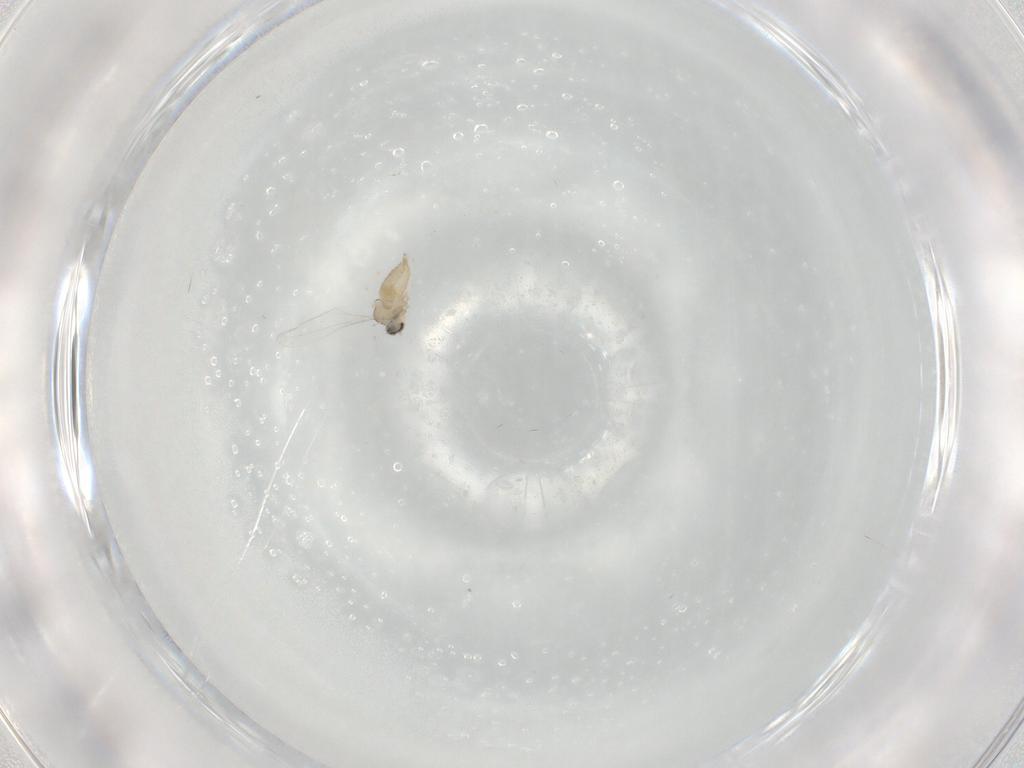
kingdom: Animalia
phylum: Arthropoda
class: Insecta
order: Diptera
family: Cecidomyiidae
